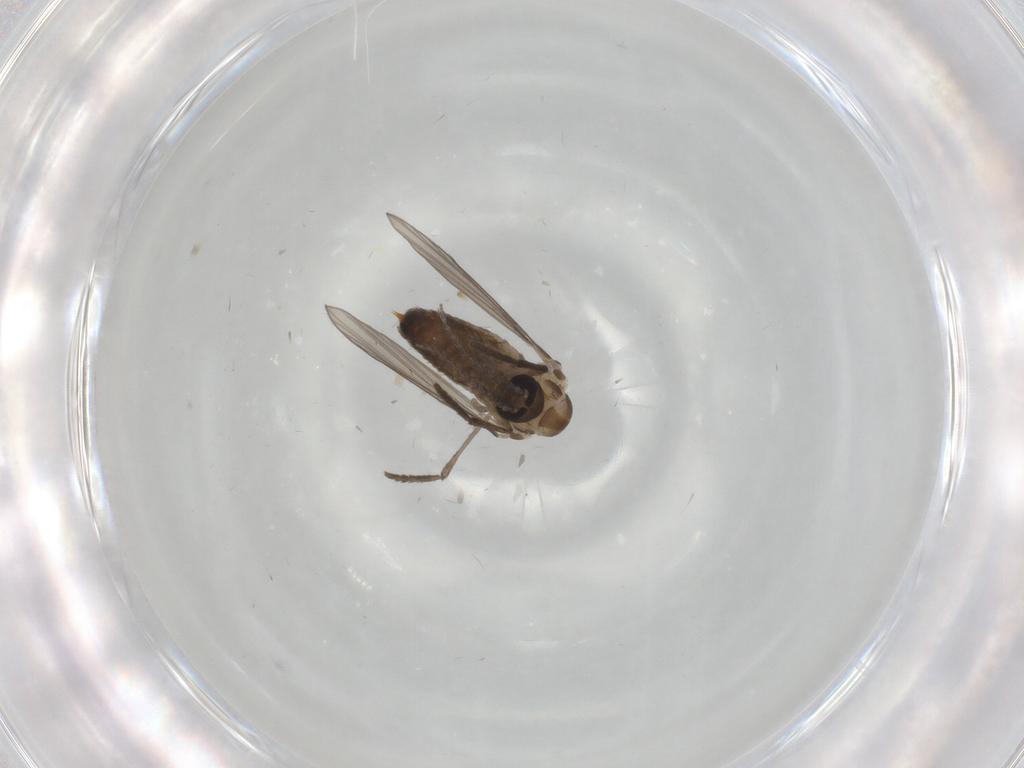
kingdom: Animalia
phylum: Arthropoda
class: Insecta
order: Diptera
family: Psychodidae
